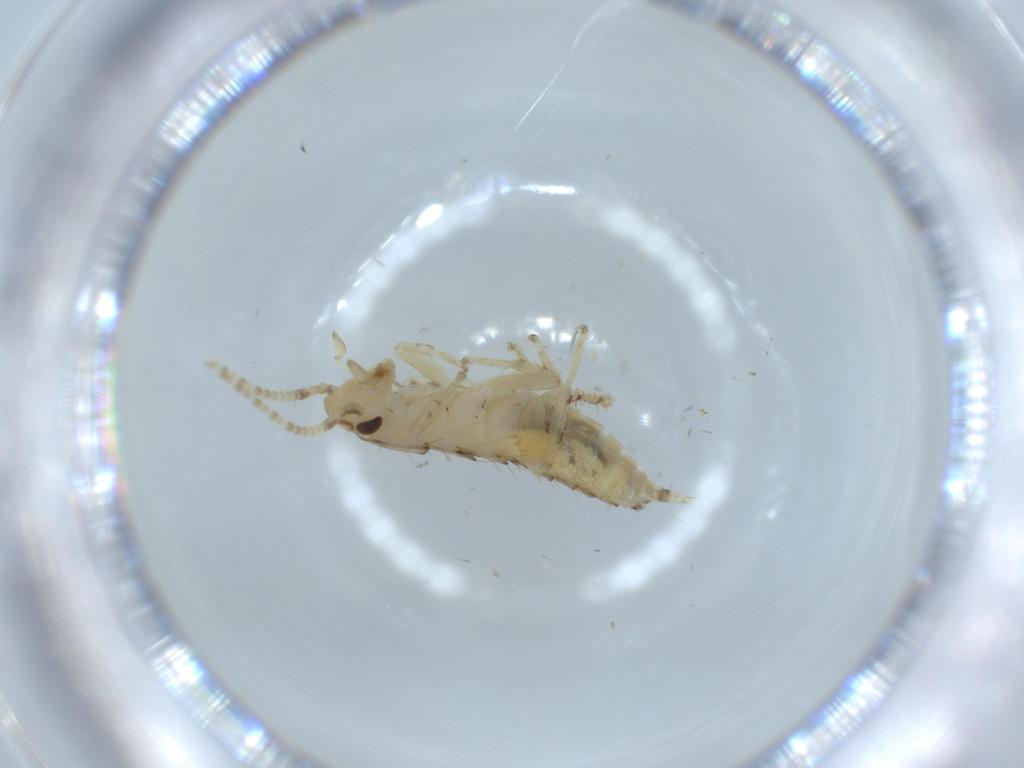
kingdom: Animalia
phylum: Arthropoda
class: Insecta
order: Blattodea
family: Ectobiidae
